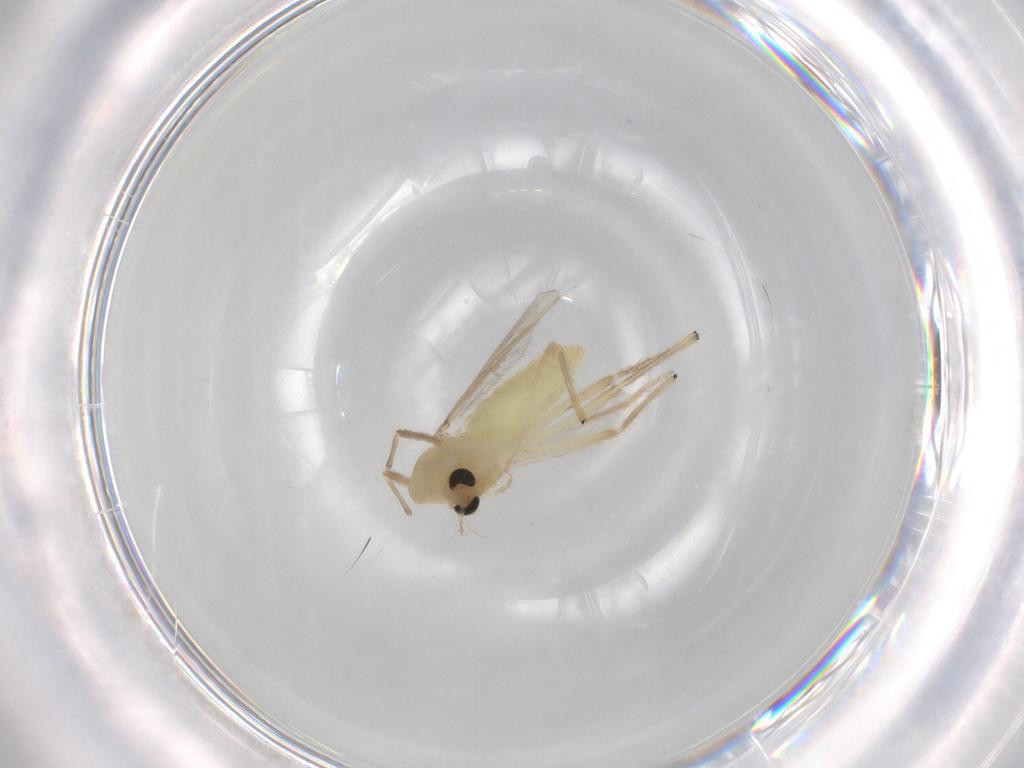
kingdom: Animalia
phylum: Arthropoda
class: Insecta
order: Diptera
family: Chironomidae
